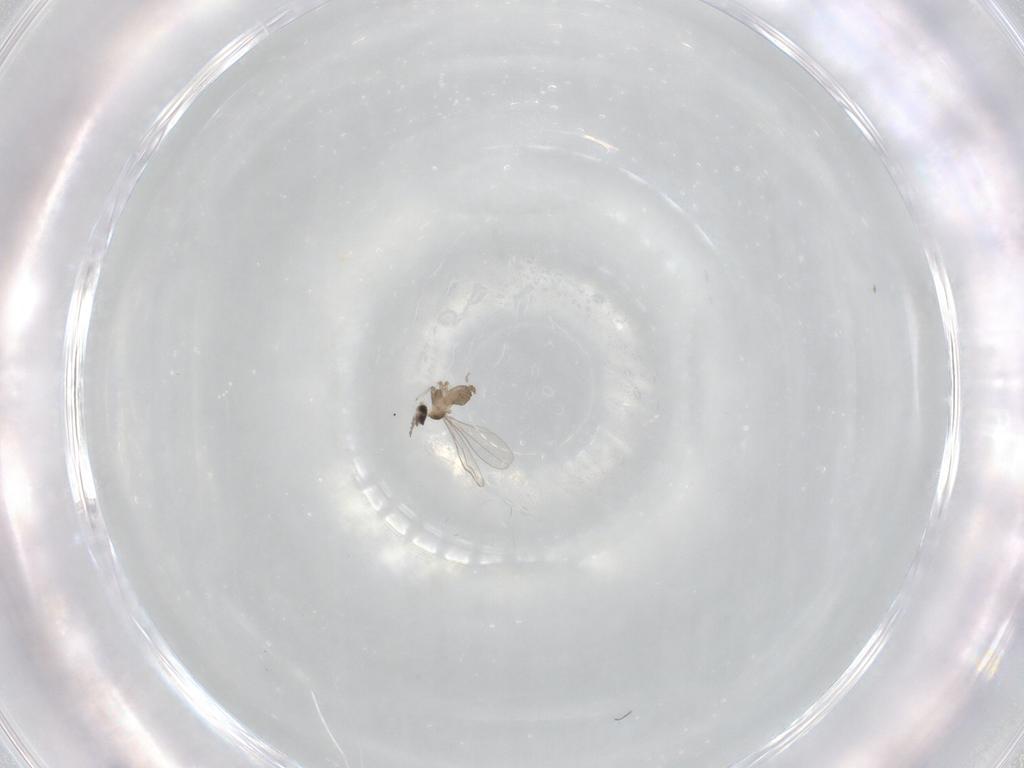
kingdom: Animalia
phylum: Arthropoda
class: Insecta
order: Diptera
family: Cecidomyiidae
